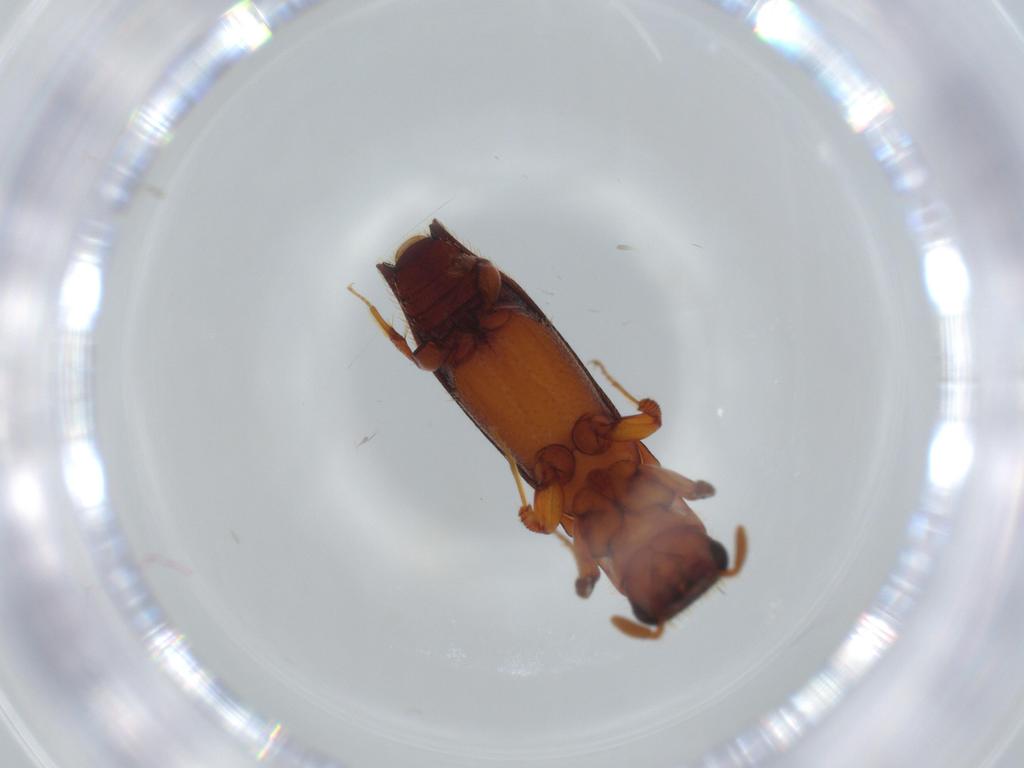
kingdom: Animalia
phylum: Arthropoda
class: Insecta
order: Coleoptera
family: Curculionidae
